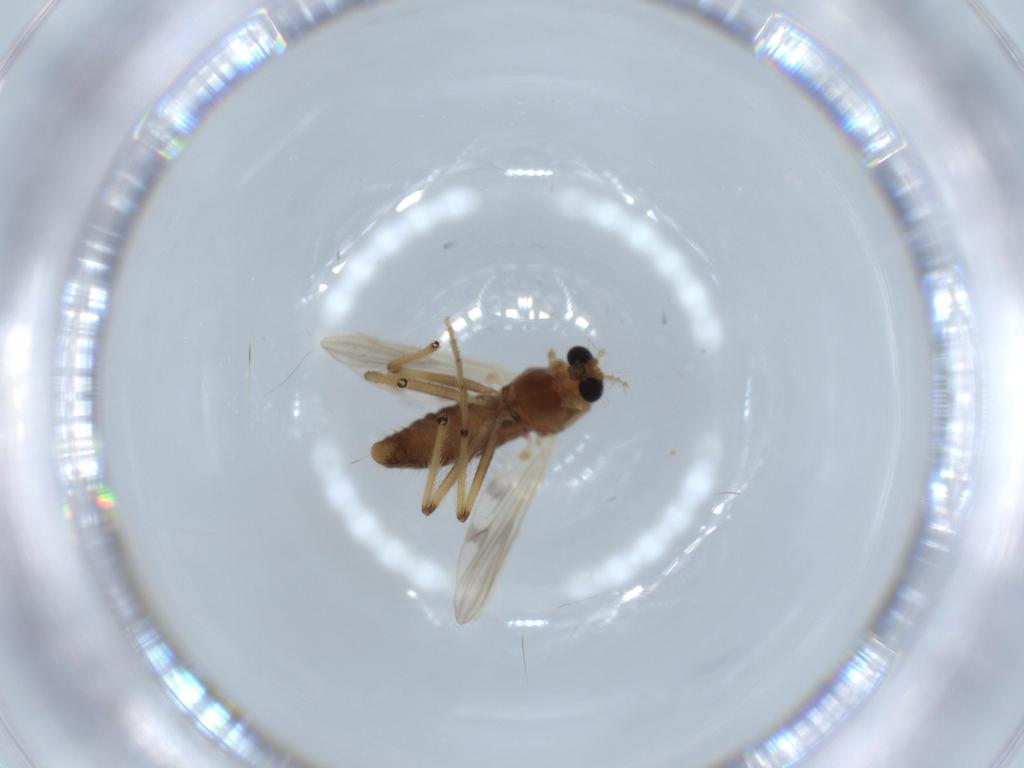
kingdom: Animalia
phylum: Arthropoda
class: Insecta
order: Diptera
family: Chironomidae
